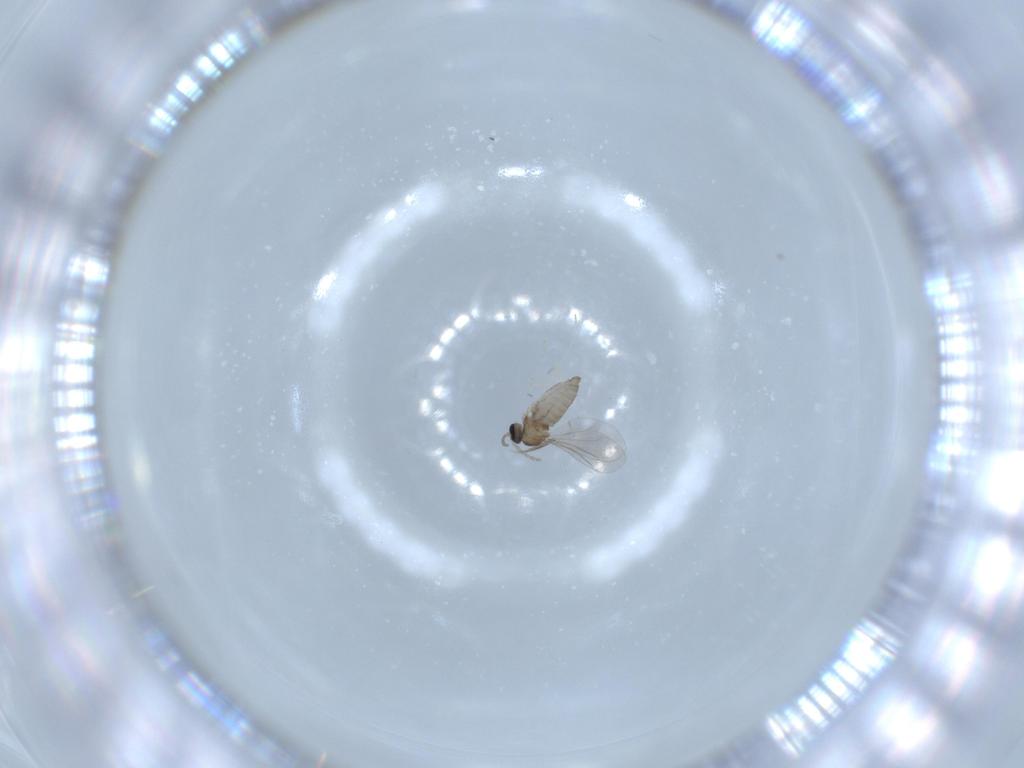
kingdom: Animalia
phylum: Arthropoda
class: Insecta
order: Diptera
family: Cecidomyiidae
